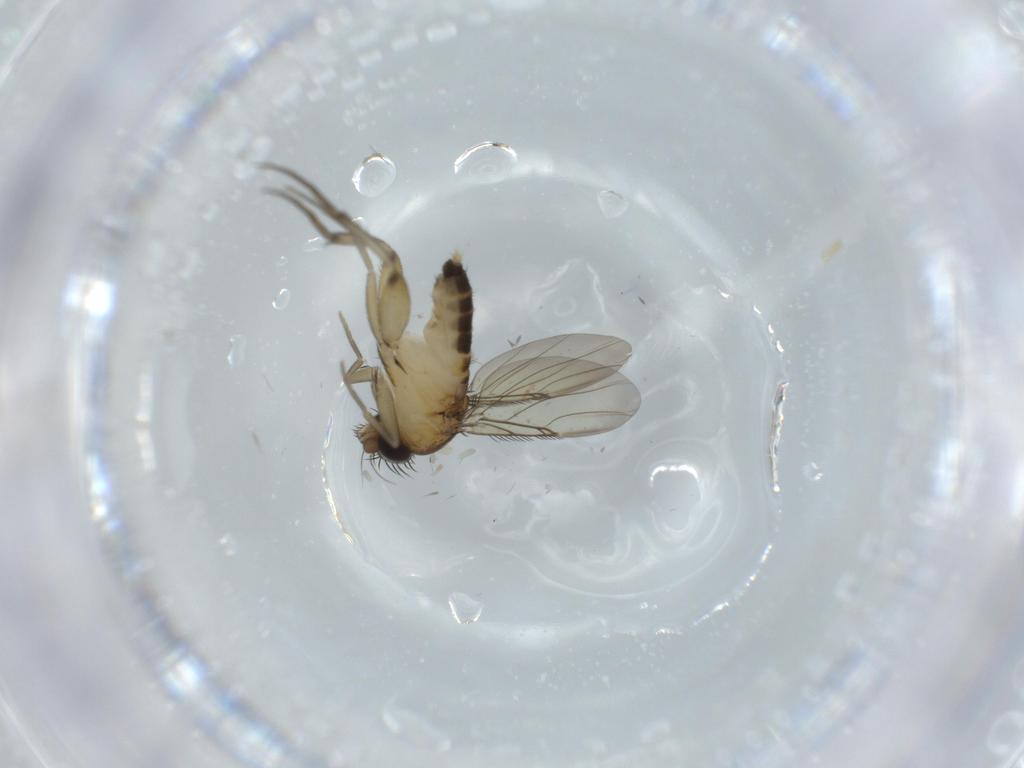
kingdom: Animalia
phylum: Arthropoda
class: Insecta
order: Diptera
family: Phoridae
